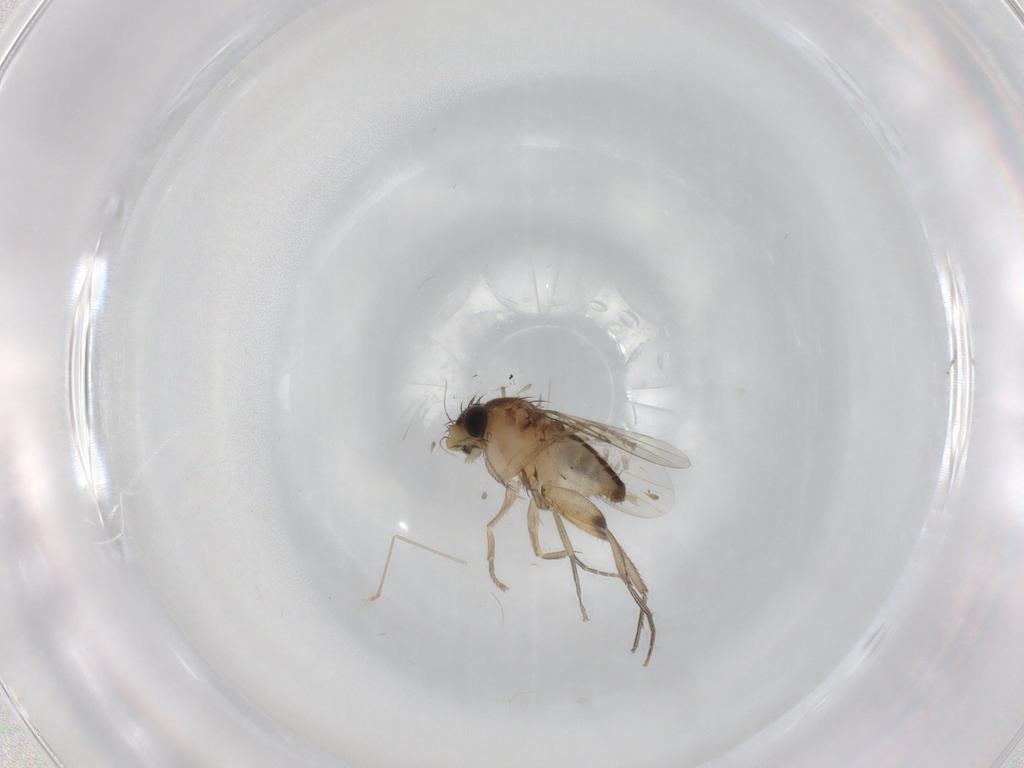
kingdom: Animalia
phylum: Arthropoda
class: Insecta
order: Diptera
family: Phoridae
